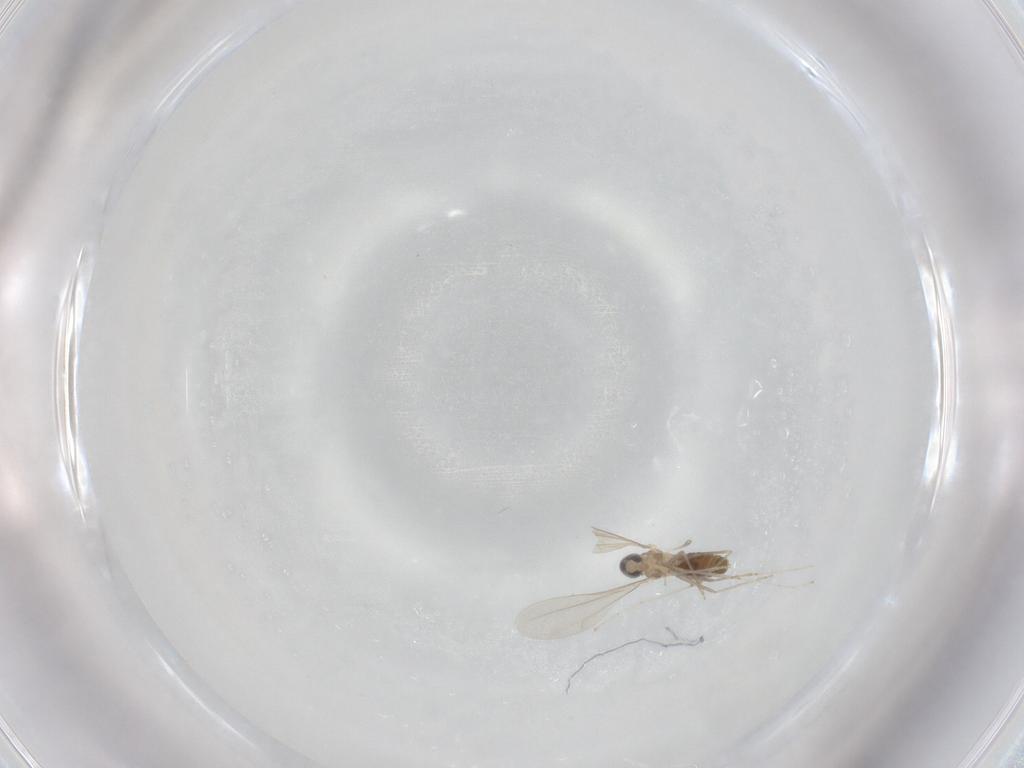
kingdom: Animalia
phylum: Arthropoda
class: Insecta
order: Diptera
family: Cecidomyiidae
